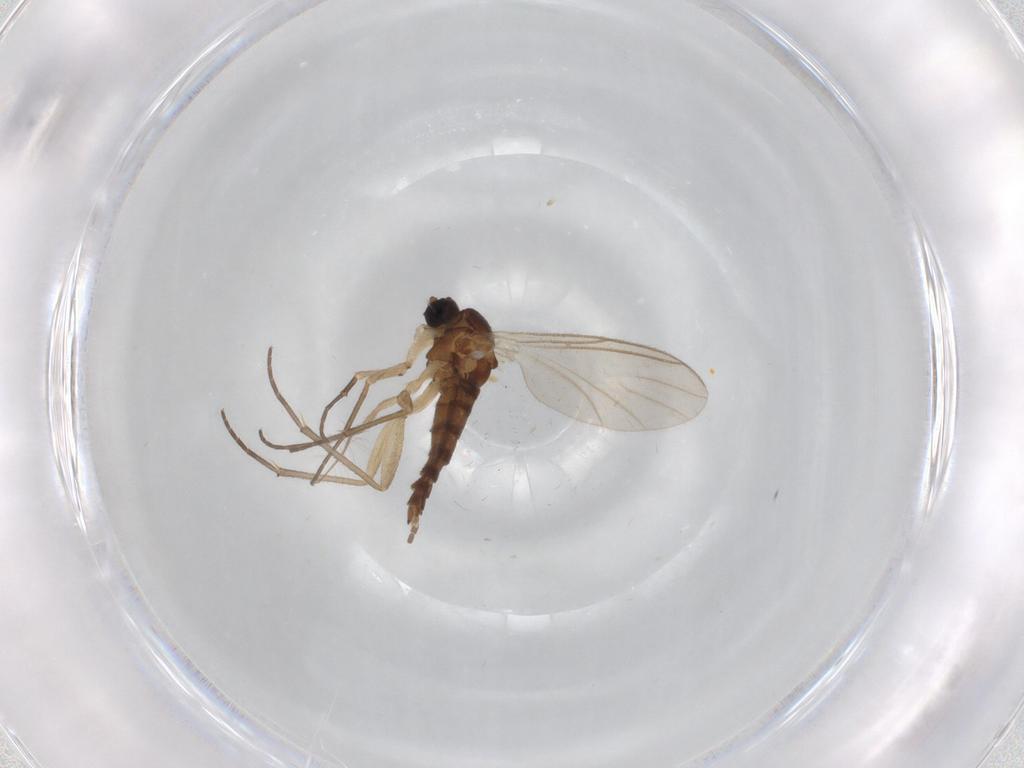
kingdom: Animalia
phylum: Arthropoda
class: Insecta
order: Diptera
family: Sciaridae
